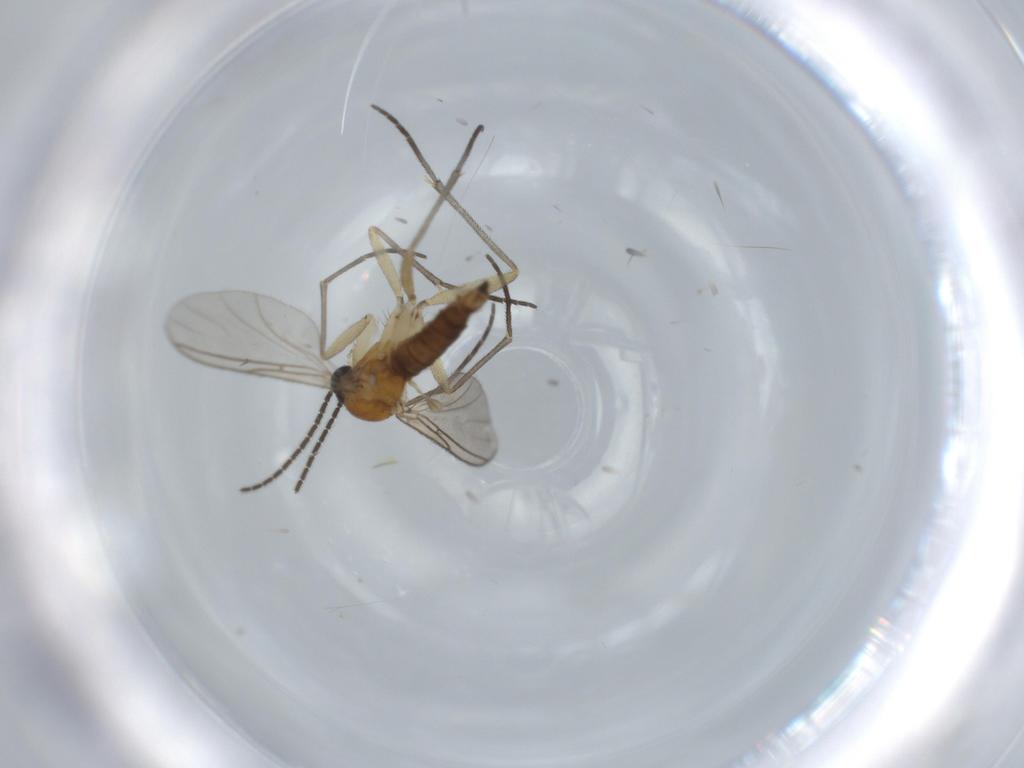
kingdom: Animalia
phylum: Arthropoda
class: Insecta
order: Diptera
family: Sciaridae
